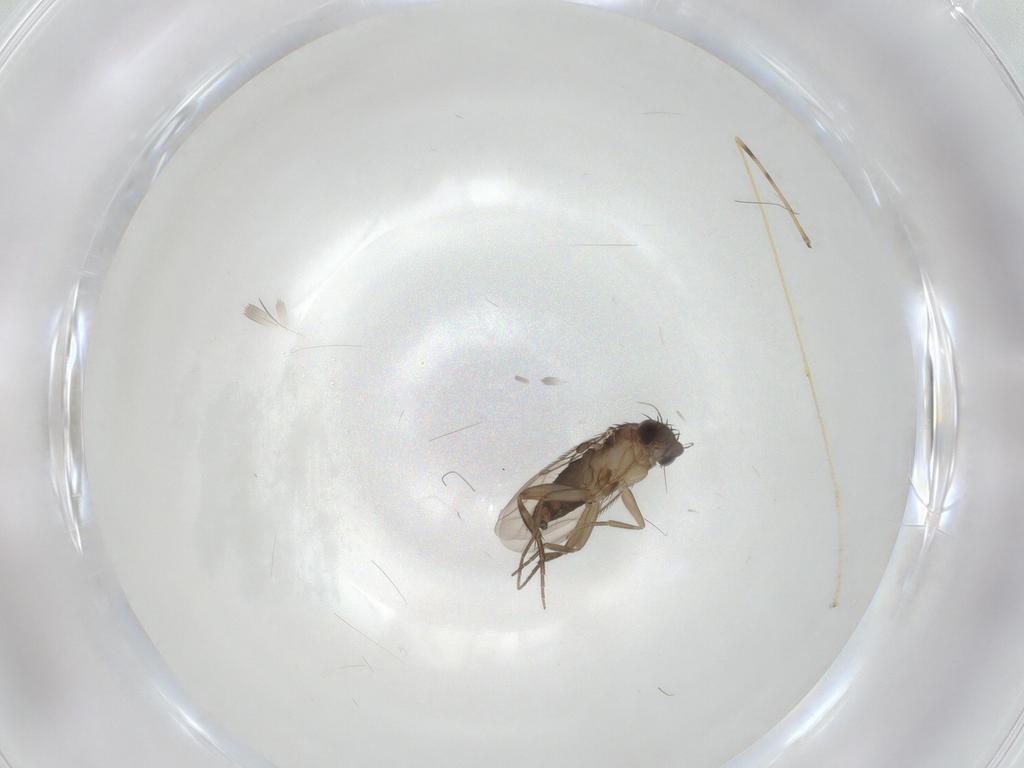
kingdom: Animalia
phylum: Arthropoda
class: Insecta
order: Diptera
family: Phoridae
